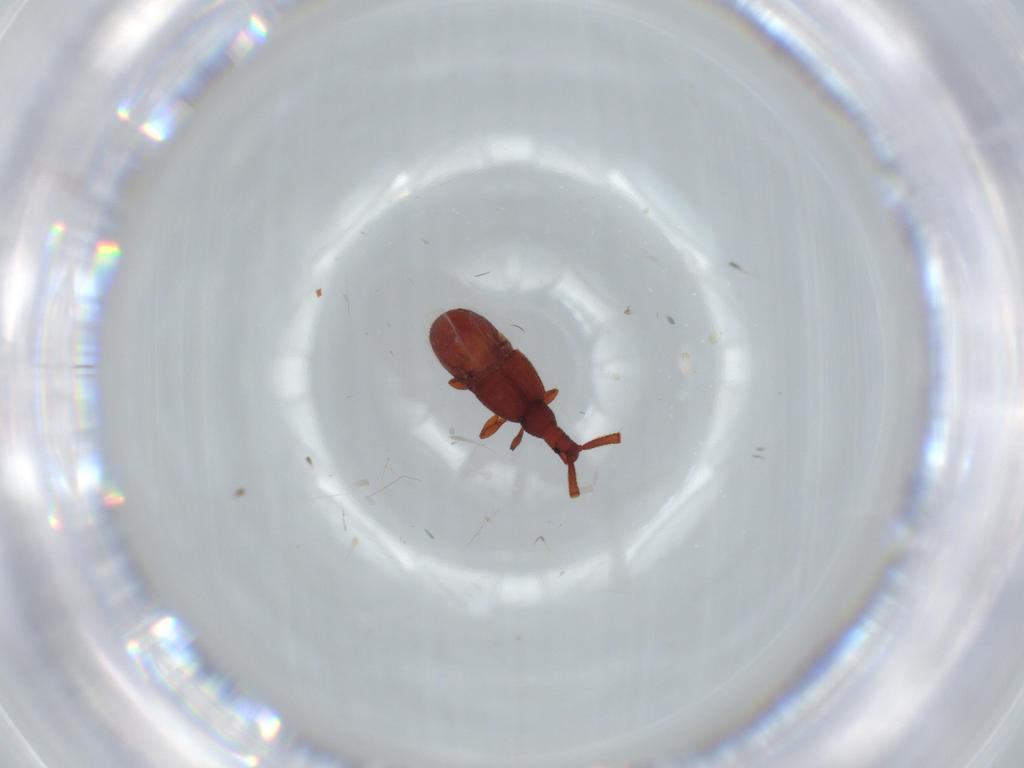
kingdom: Animalia
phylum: Arthropoda
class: Insecta
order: Coleoptera
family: Staphylinidae
